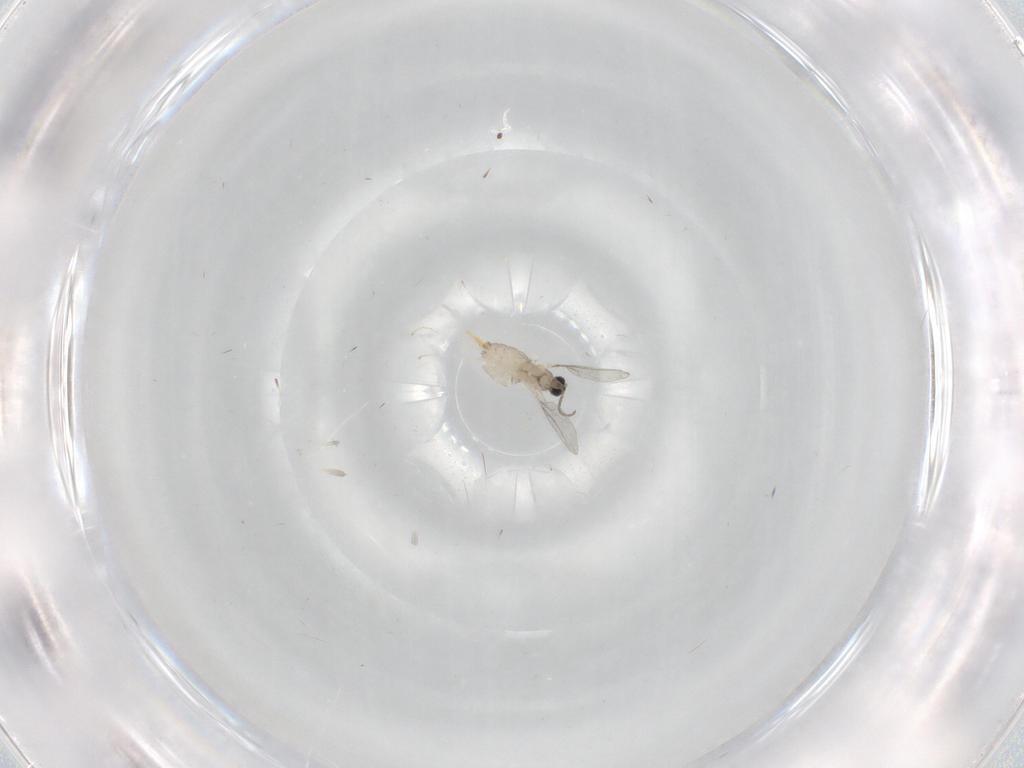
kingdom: Animalia
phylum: Arthropoda
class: Insecta
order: Diptera
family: Cecidomyiidae
